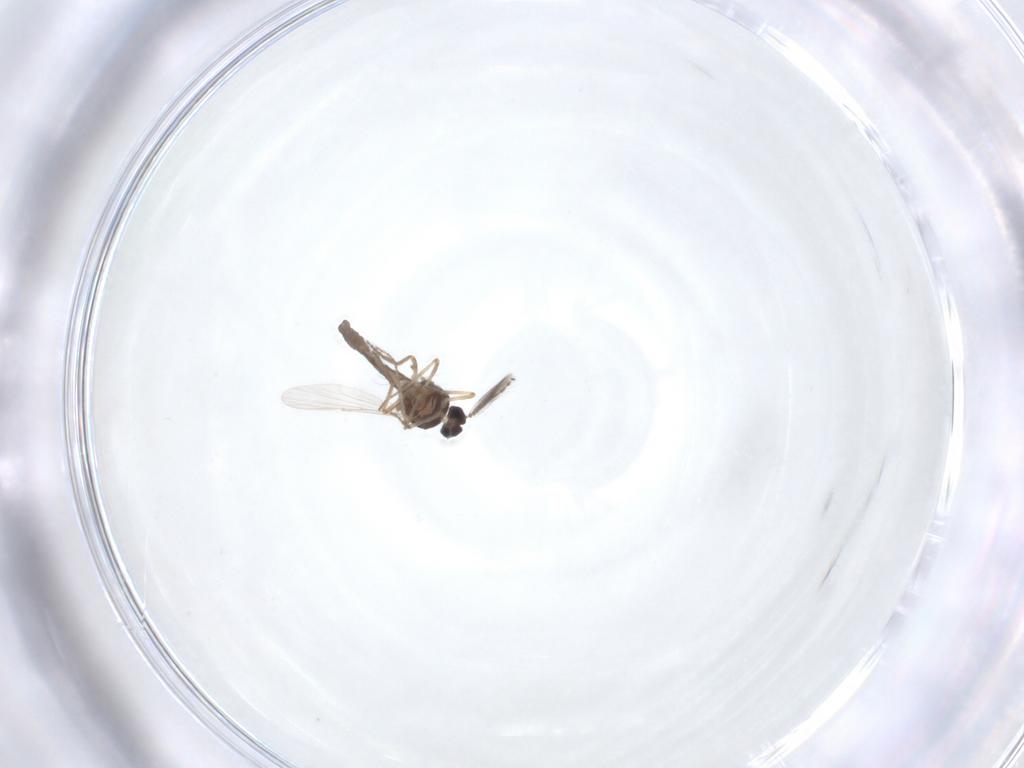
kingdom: Animalia
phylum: Arthropoda
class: Insecta
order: Diptera
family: Ceratopogonidae
